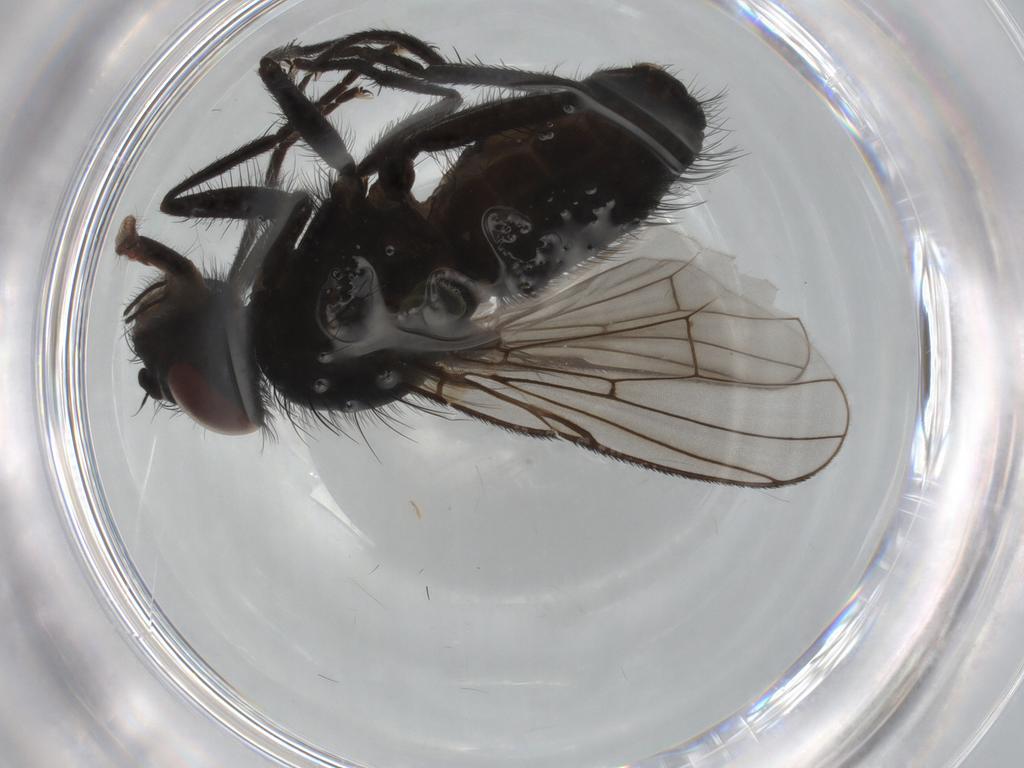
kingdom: Animalia
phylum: Arthropoda
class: Insecta
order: Diptera
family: Muscidae
